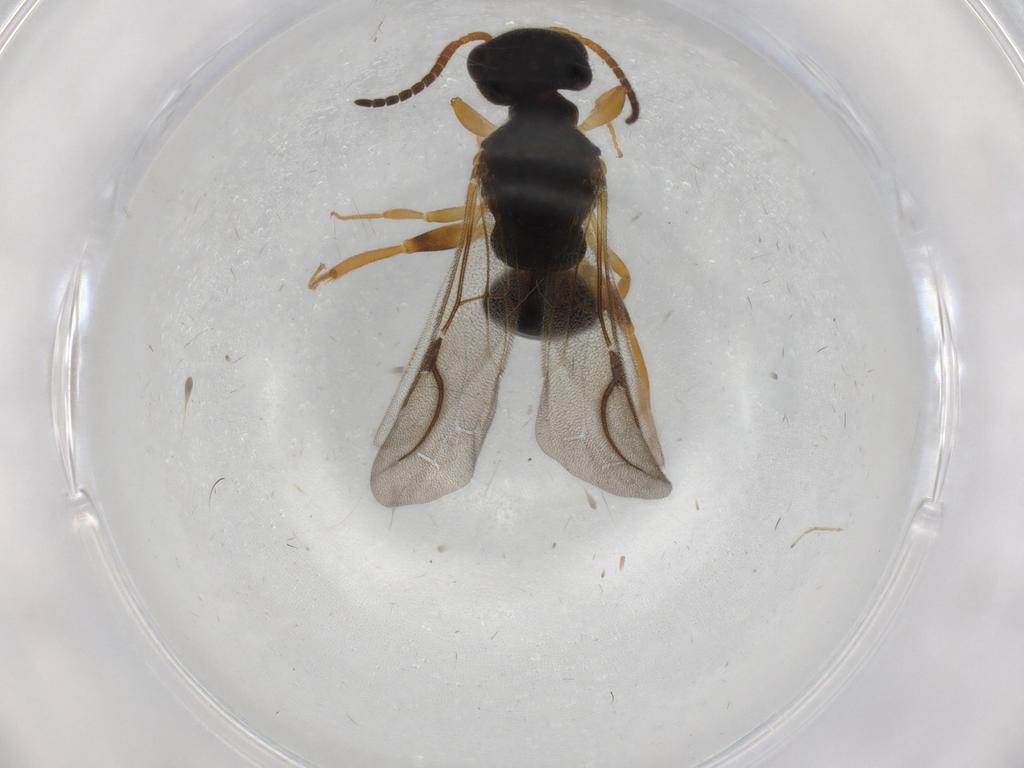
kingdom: Animalia
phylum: Arthropoda
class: Insecta
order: Hymenoptera
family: Bethylidae
